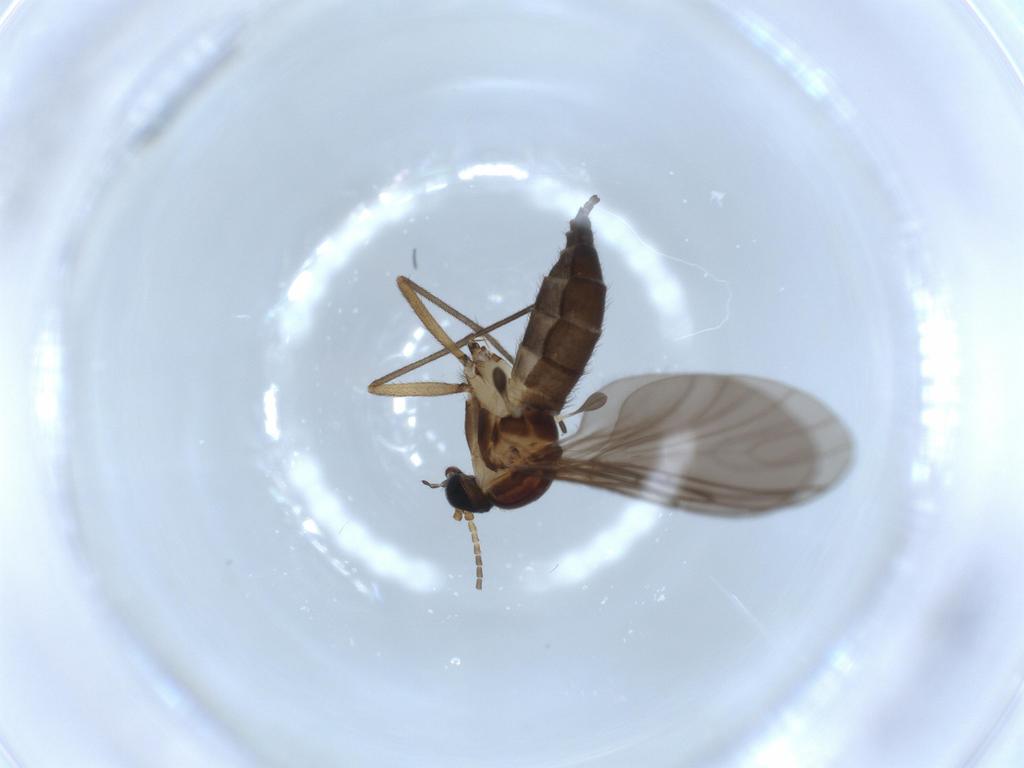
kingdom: Animalia
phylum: Arthropoda
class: Insecta
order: Diptera
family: Sciaridae
